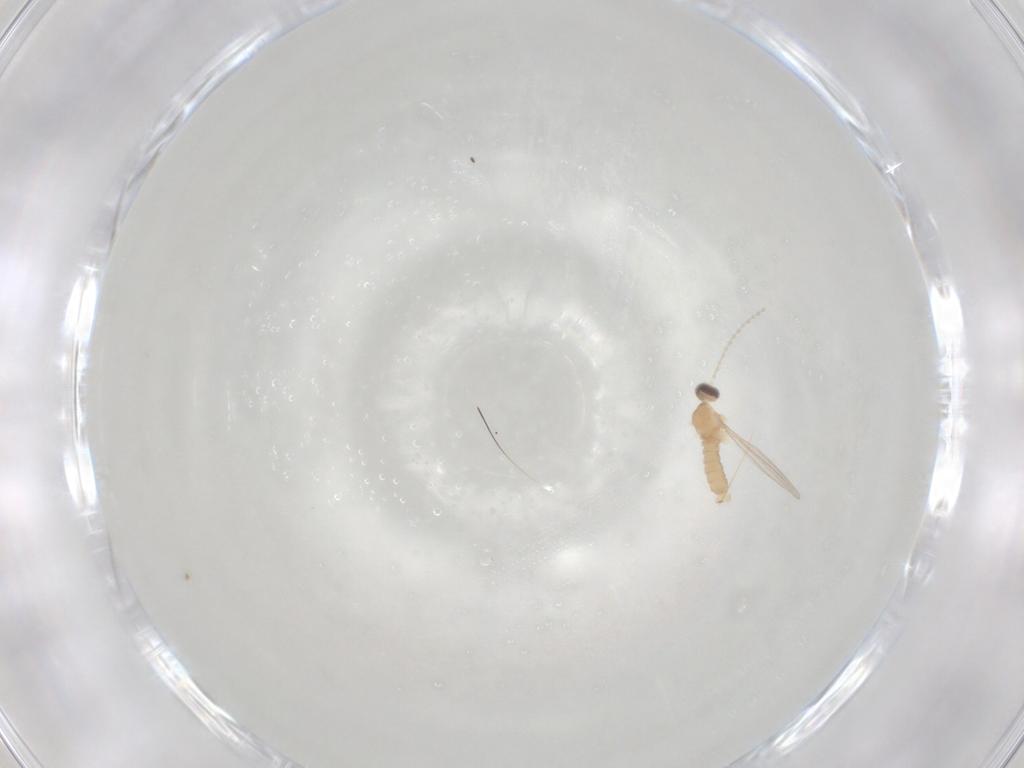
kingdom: Animalia
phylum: Arthropoda
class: Insecta
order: Diptera
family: Cecidomyiidae
